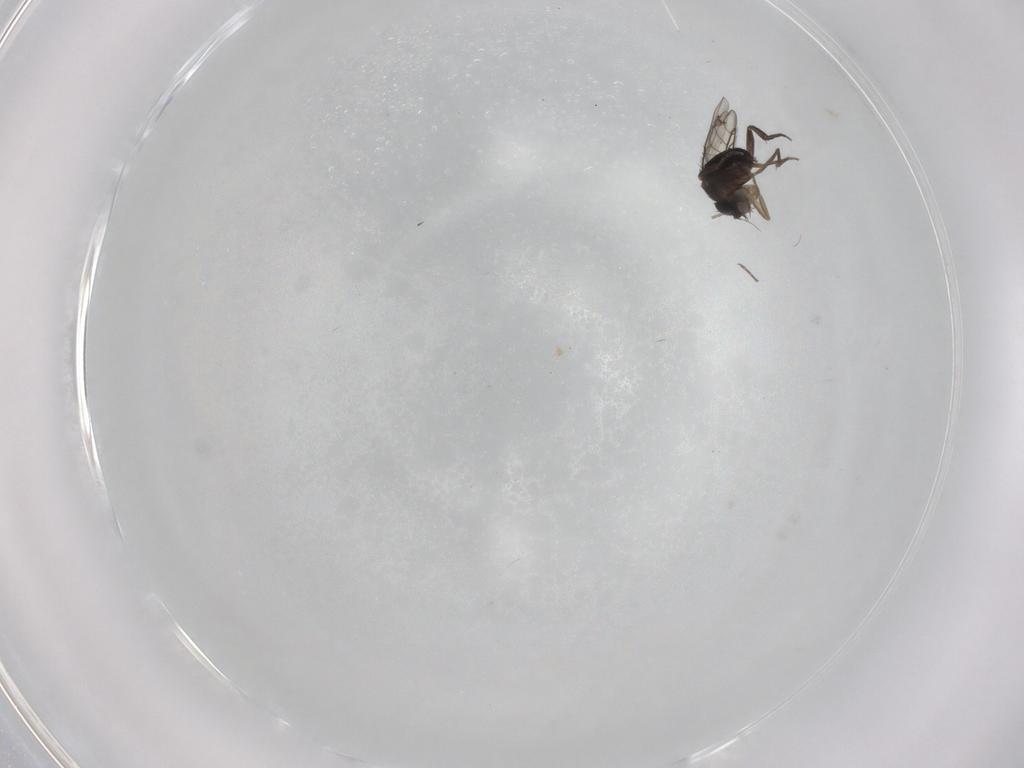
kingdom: Animalia
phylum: Arthropoda
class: Insecta
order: Diptera
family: Phoridae
